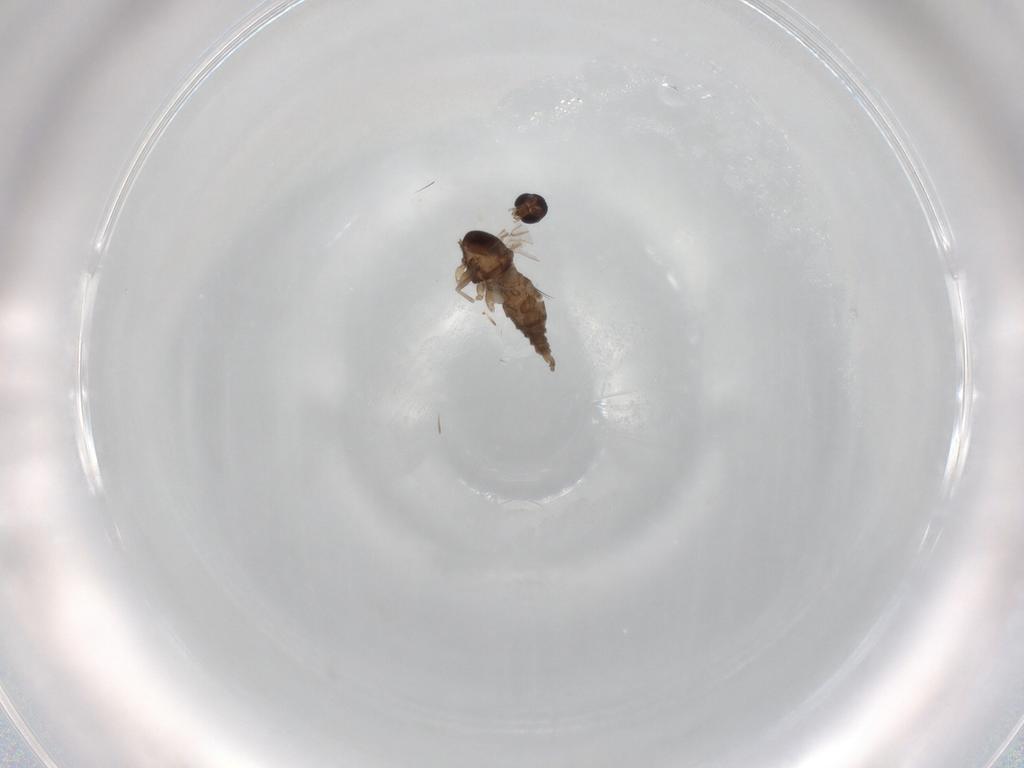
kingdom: Animalia
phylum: Arthropoda
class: Insecta
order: Diptera
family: Cecidomyiidae
